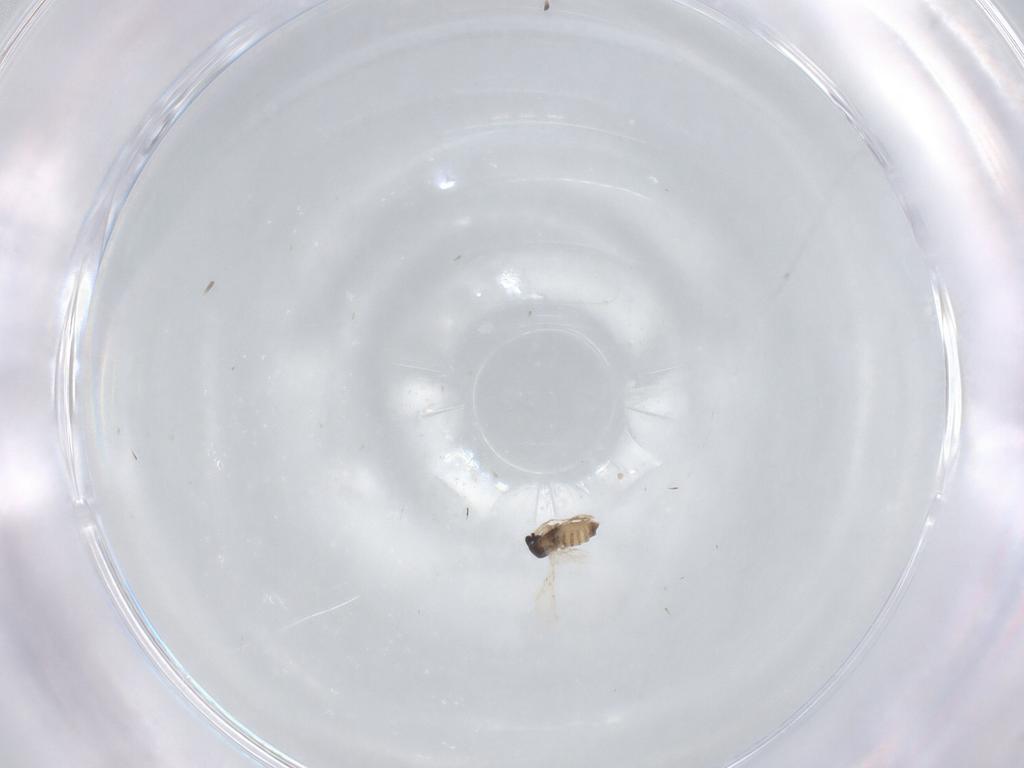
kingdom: Animalia
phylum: Arthropoda
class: Insecta
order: Diptera
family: Cecidomyiidae
